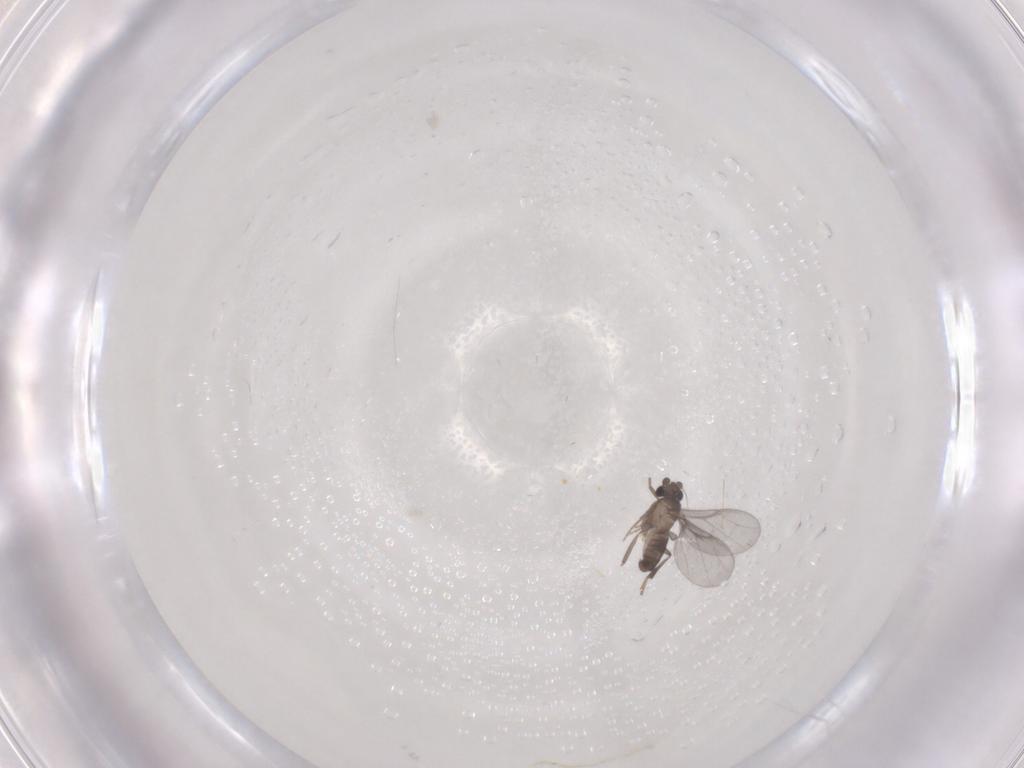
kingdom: Animalia
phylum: Arthropoda
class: Insecta
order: Diptera
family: Phoridae
